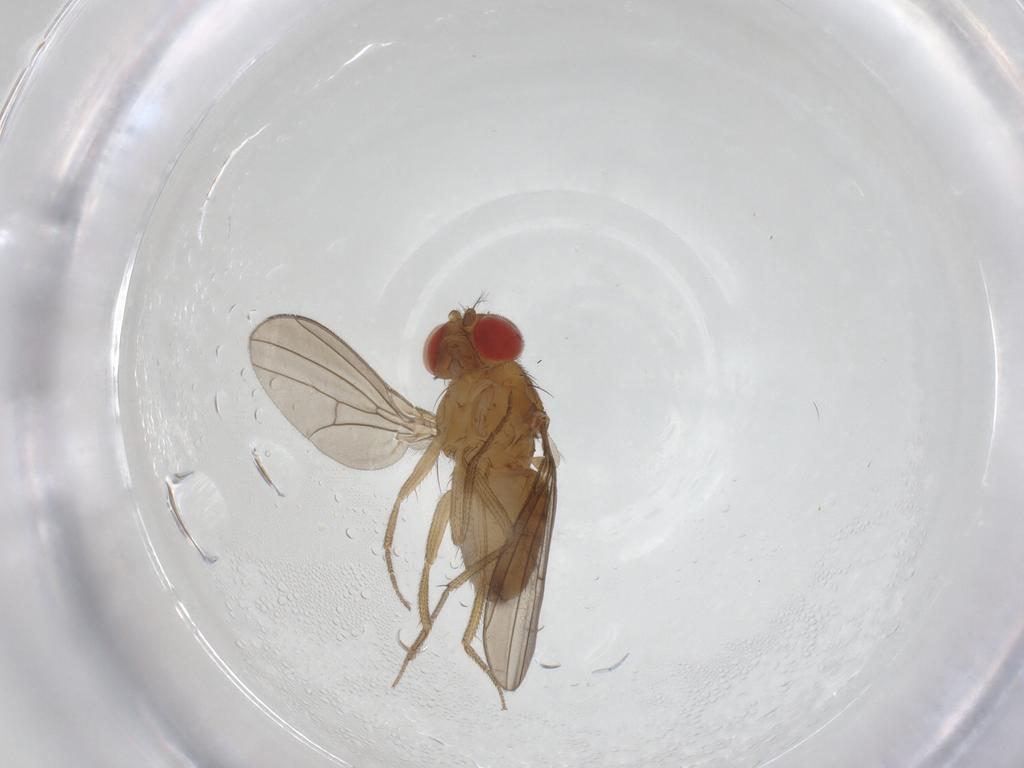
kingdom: Animalia
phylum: Arthropoda
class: Insecta
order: Diptera
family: Drosophilidae
